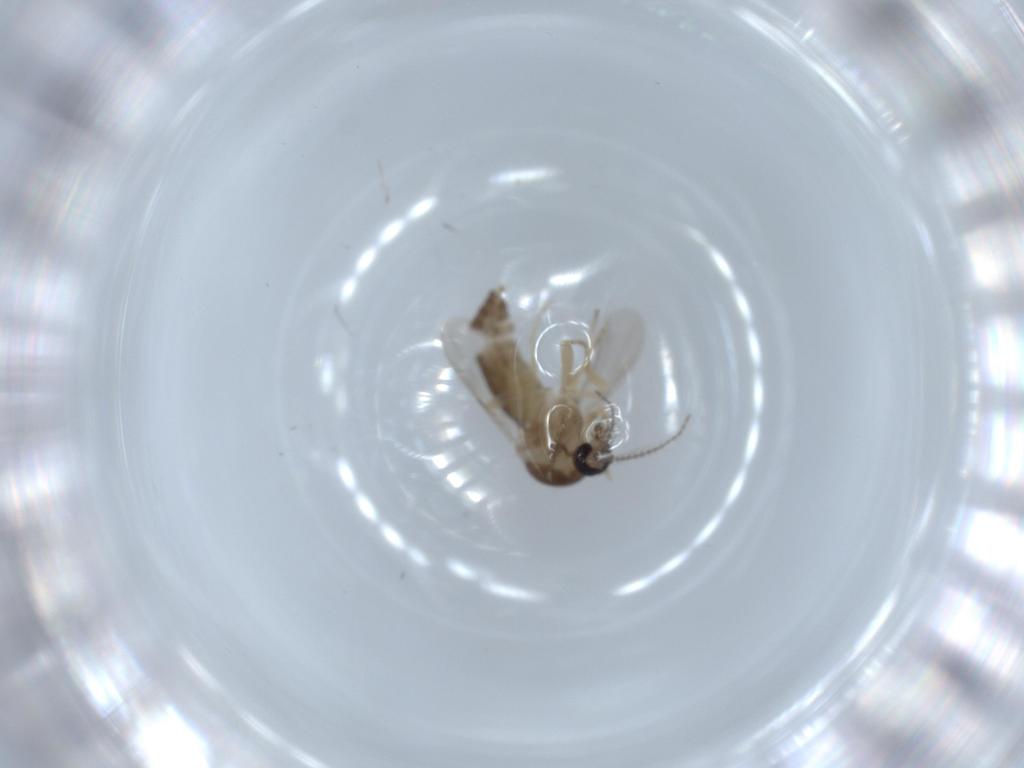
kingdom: Animalia
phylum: Arthropoda
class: Insecta
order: Diptera
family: Ceratopogonidae
